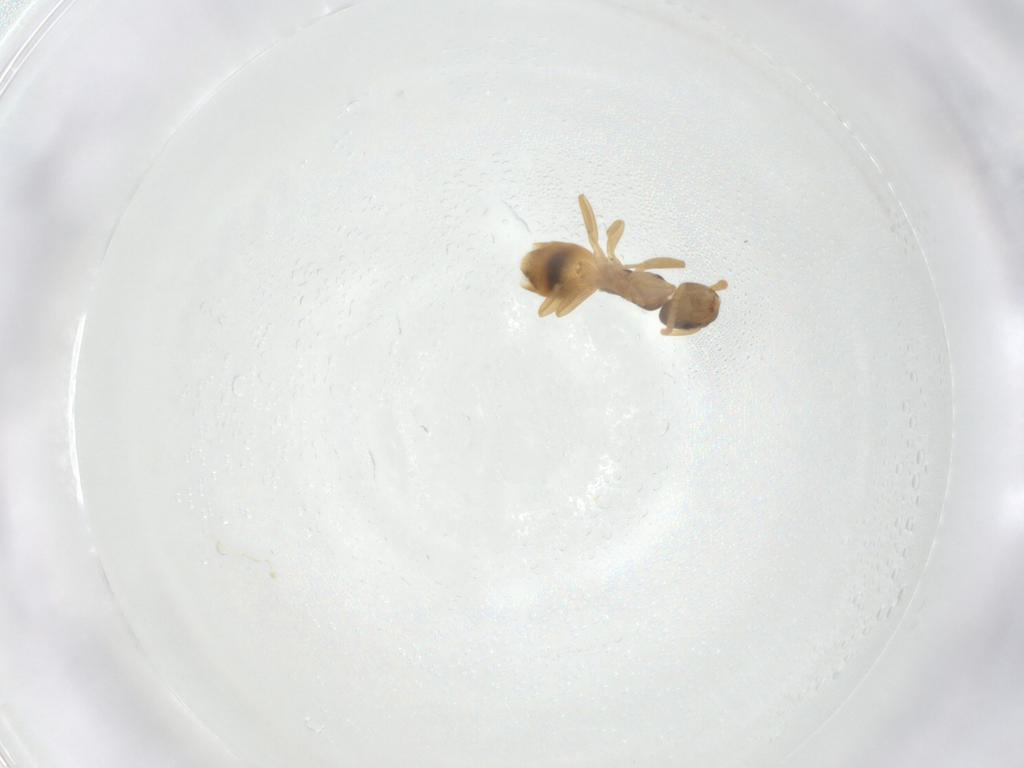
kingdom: Animalia
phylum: Arthropoda
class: Insecta
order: Hymenoptera
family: Formicidae
